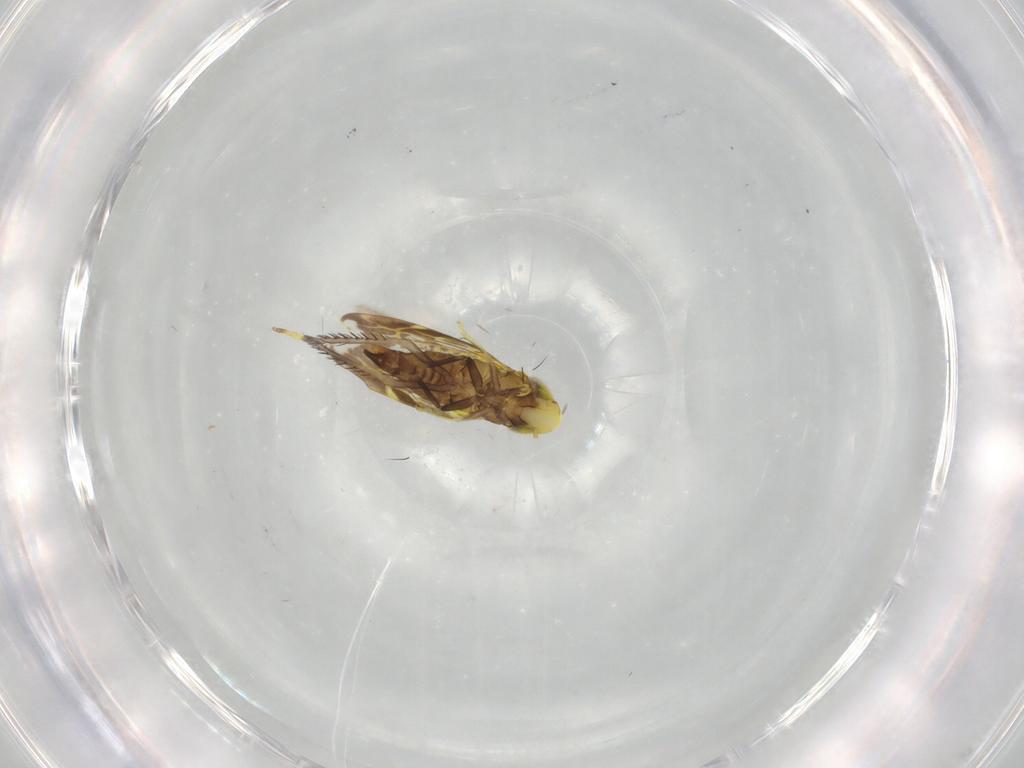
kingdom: Animalia
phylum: Arthropoda
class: Insecta
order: Hemiptera
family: Cicadellidae
